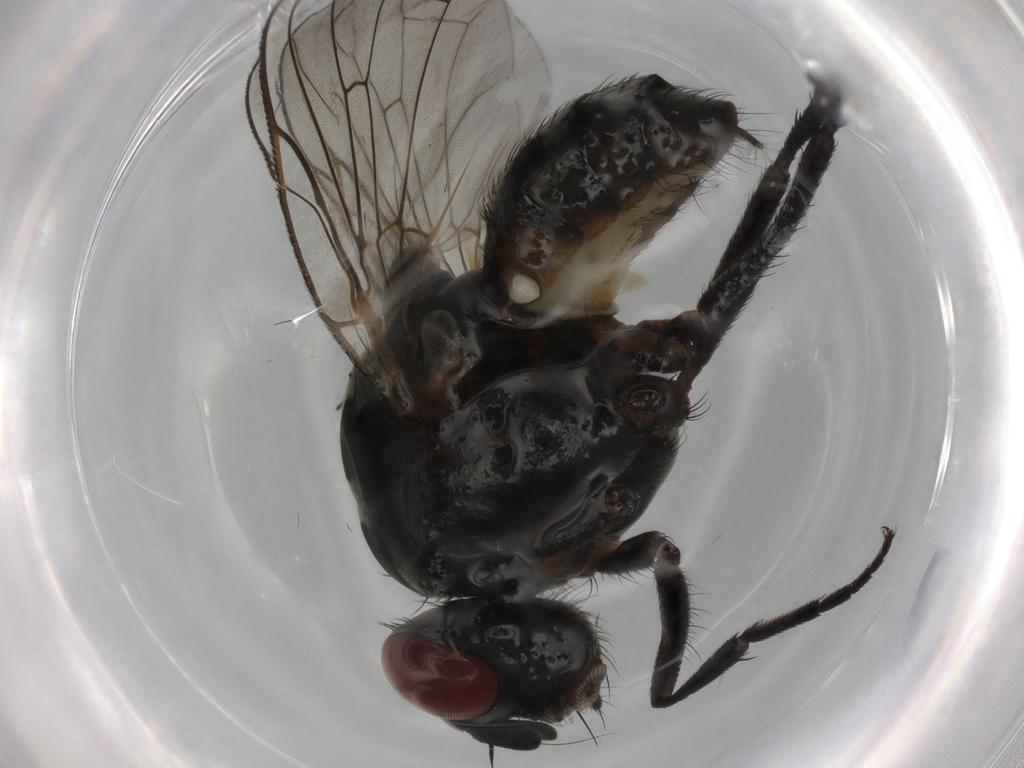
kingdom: Animalia
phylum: Arthropoda
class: Insecta
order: Diptera
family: Anthomyiidae
